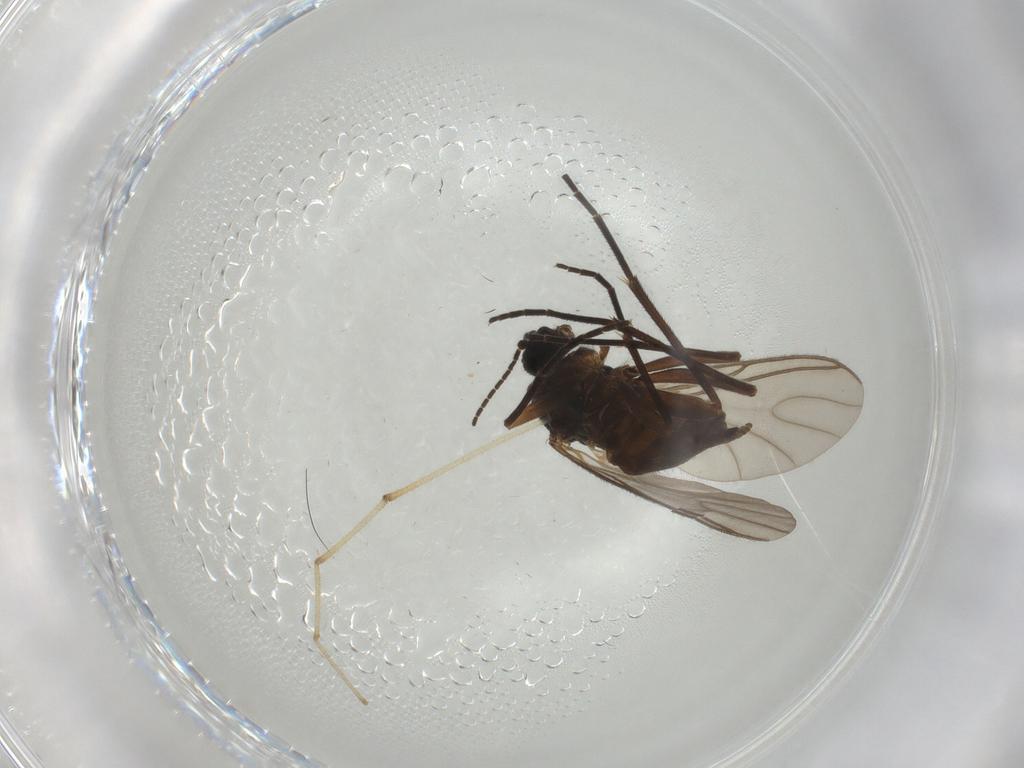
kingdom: Animalia
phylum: Arthropoda
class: Insecta
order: Diptera
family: Sciaridae
